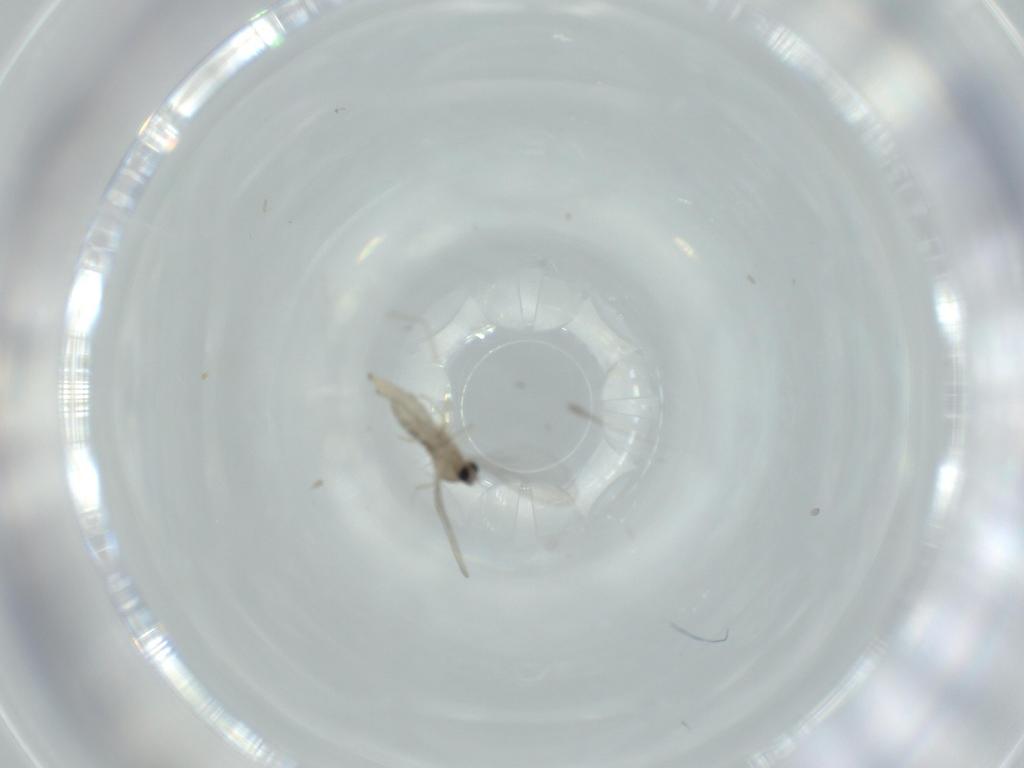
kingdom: Animalia
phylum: Arthropoda
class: Insecta
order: Diptera
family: Cecidomyiidae
